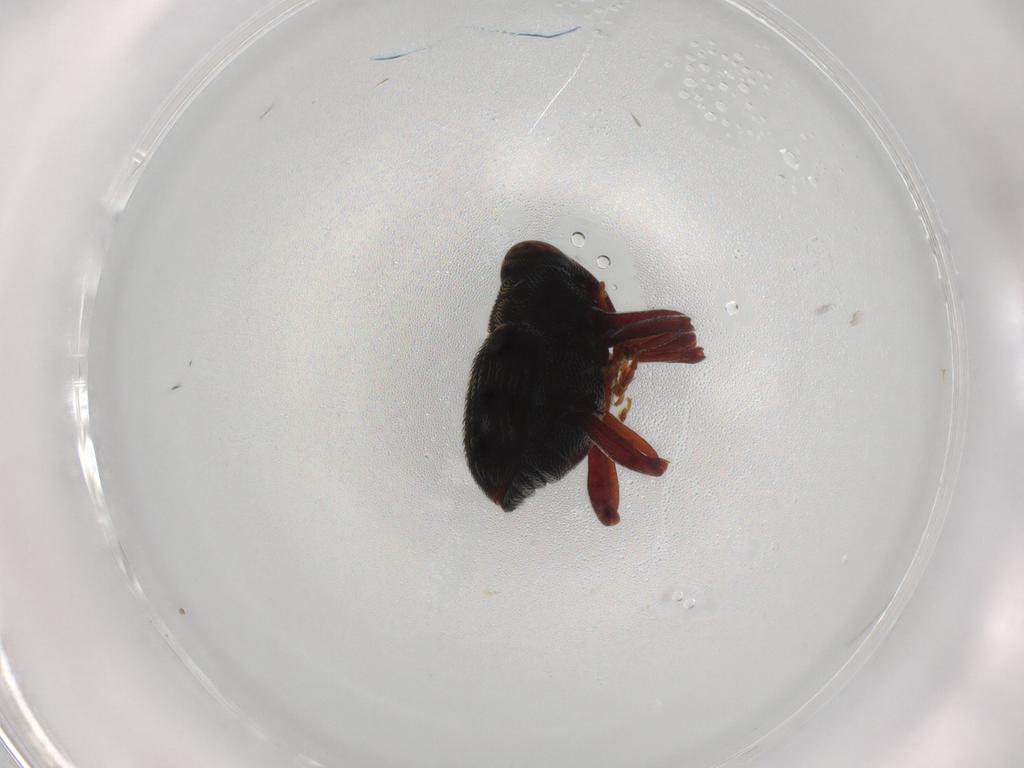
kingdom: Animalia
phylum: Arthropoda
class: Insecta
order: Coleoptera
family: Curculionidae
